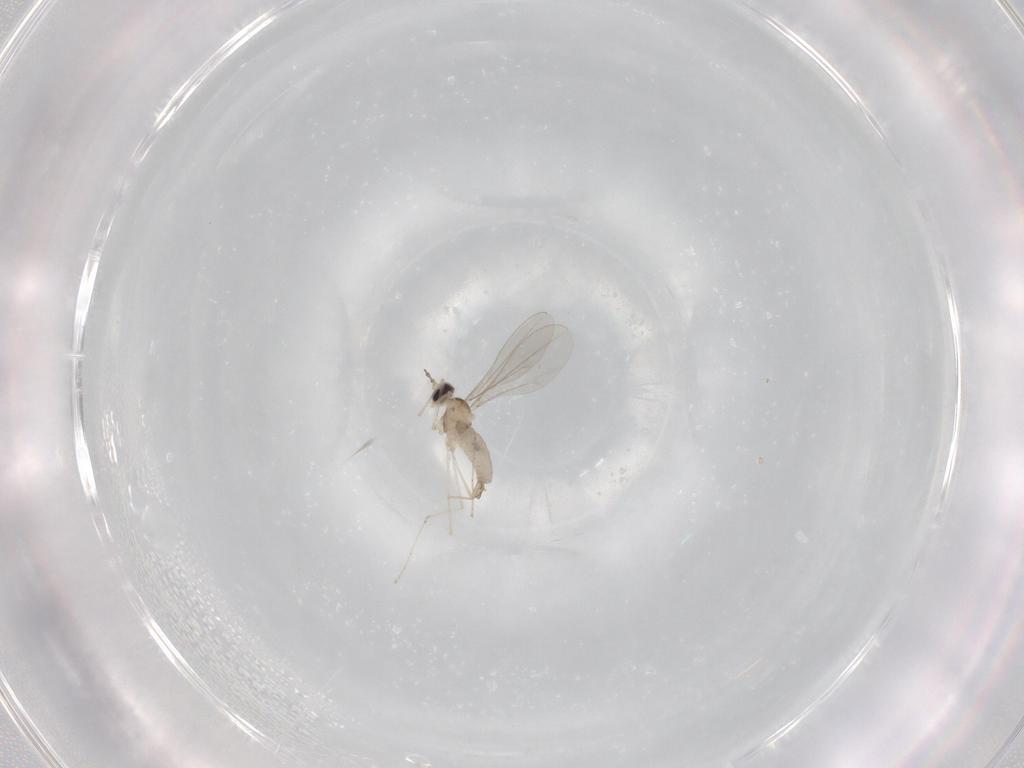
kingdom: Animalia
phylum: Arthropoda
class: Insecta
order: Diptera
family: Cecidomyiidae
